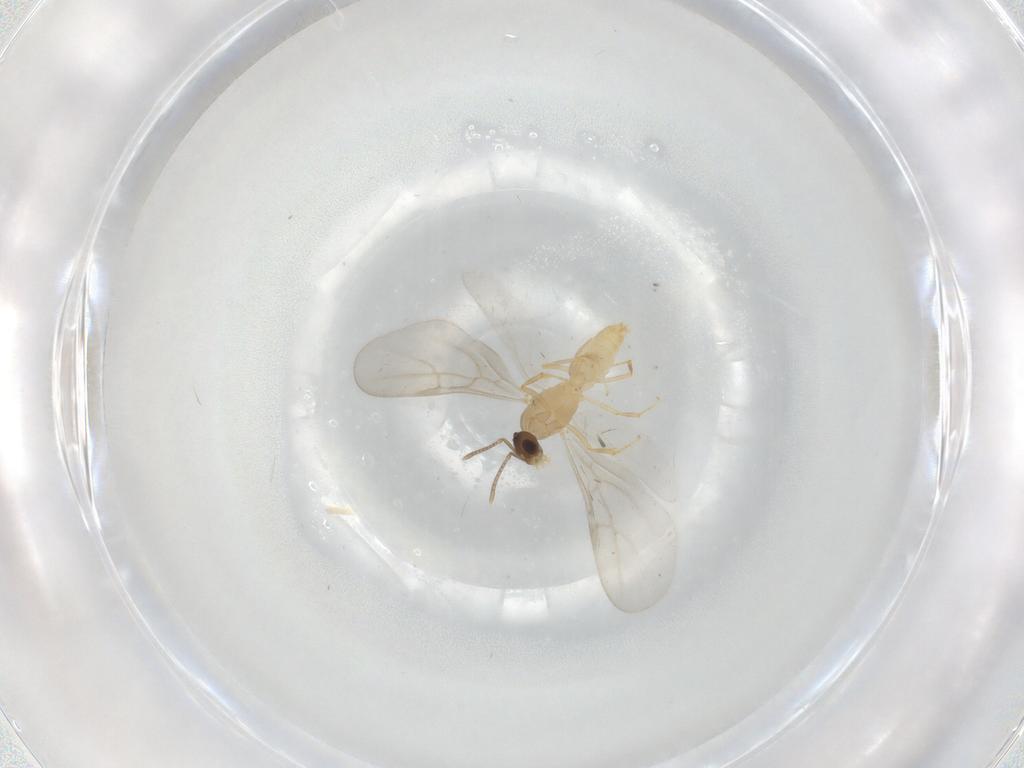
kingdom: Animalia
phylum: Arthropoda
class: Insecta
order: Hymenoptera
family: Formicidae
